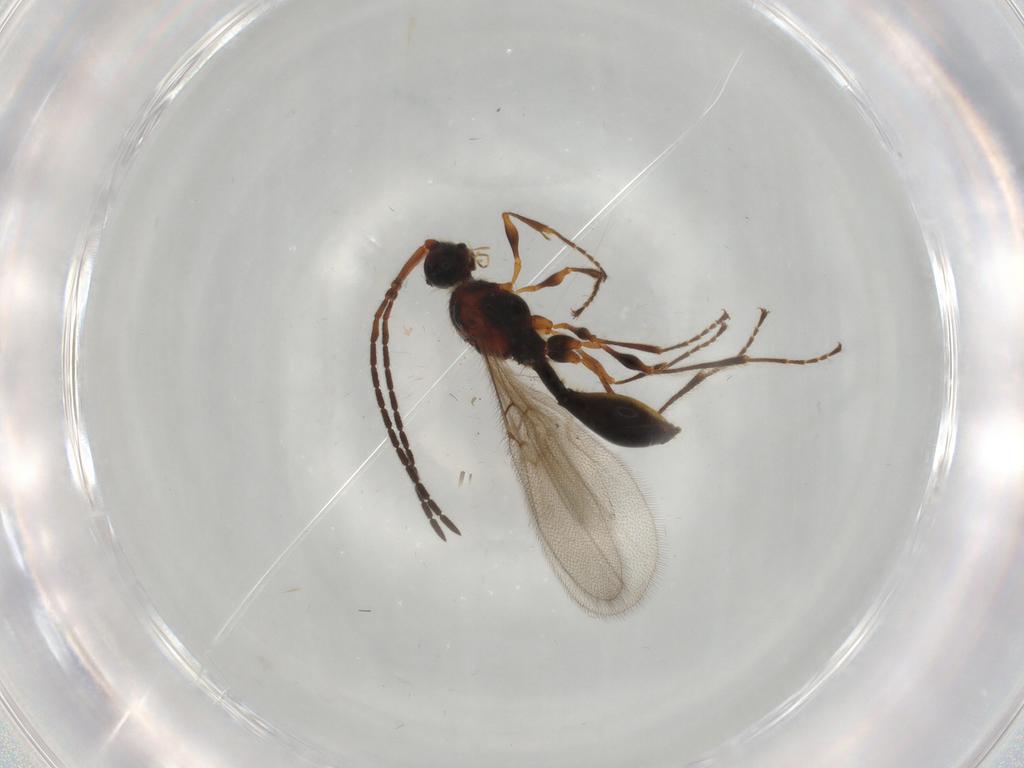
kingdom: Animalia
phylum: Arthropoda
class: Insecta
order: Hymenoptera
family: Diapriidae
